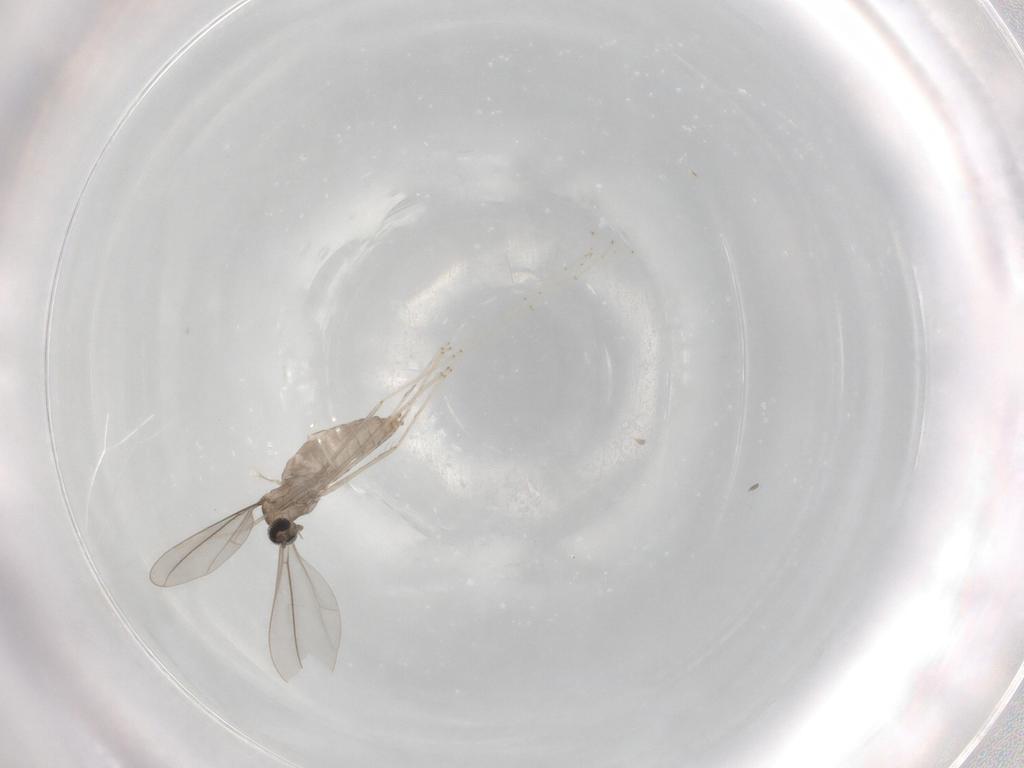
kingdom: Animalia
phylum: Arthropoda
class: Insecta
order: Diptera
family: Cecidomyiidae
